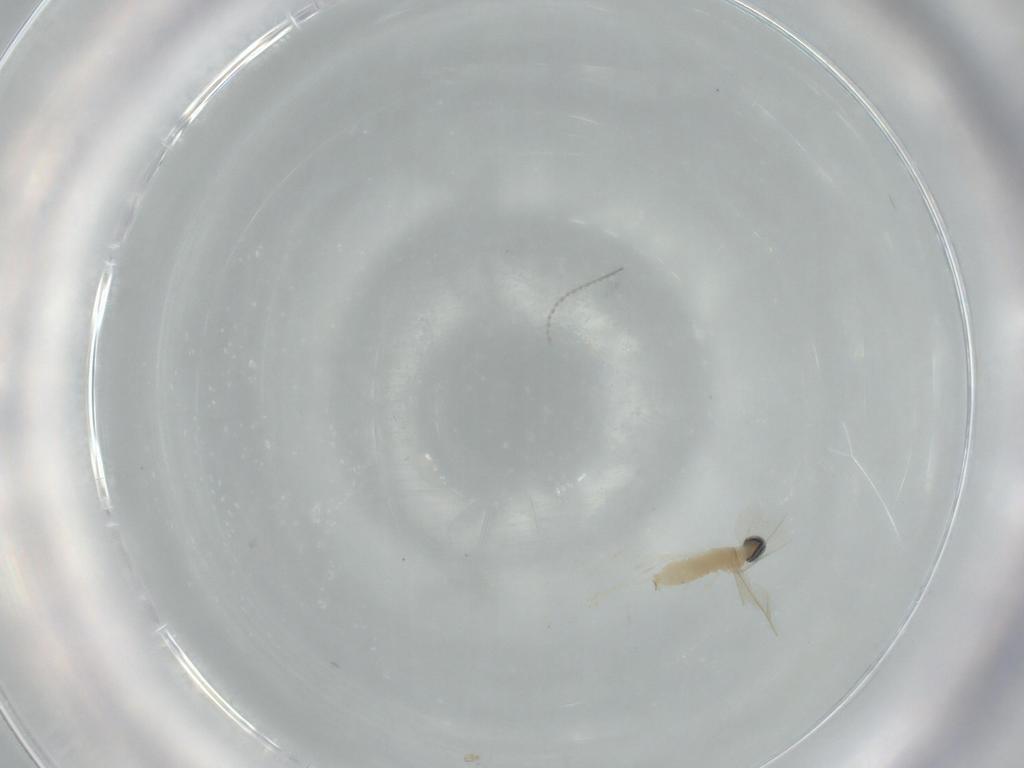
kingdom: Animalia
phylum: Arthropoda
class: Insecta
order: Diptera
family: Cecidomyiidae
